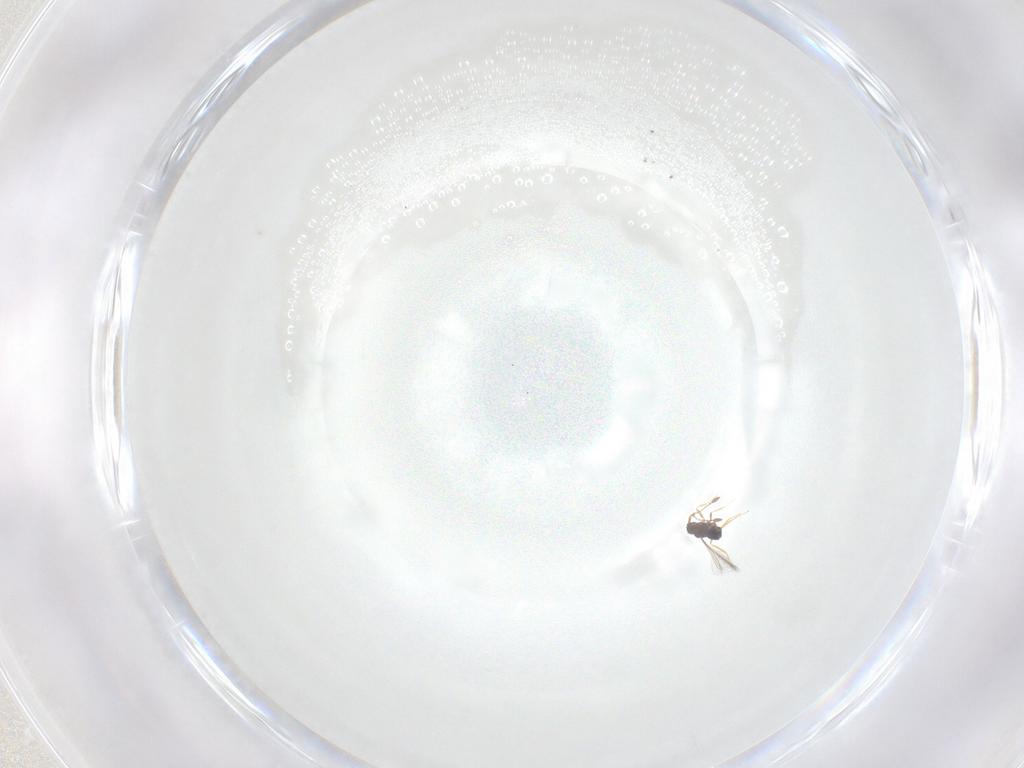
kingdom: Animalia
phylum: Arthropoda
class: Insecta
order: Hymenoptera
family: Mymaridae
